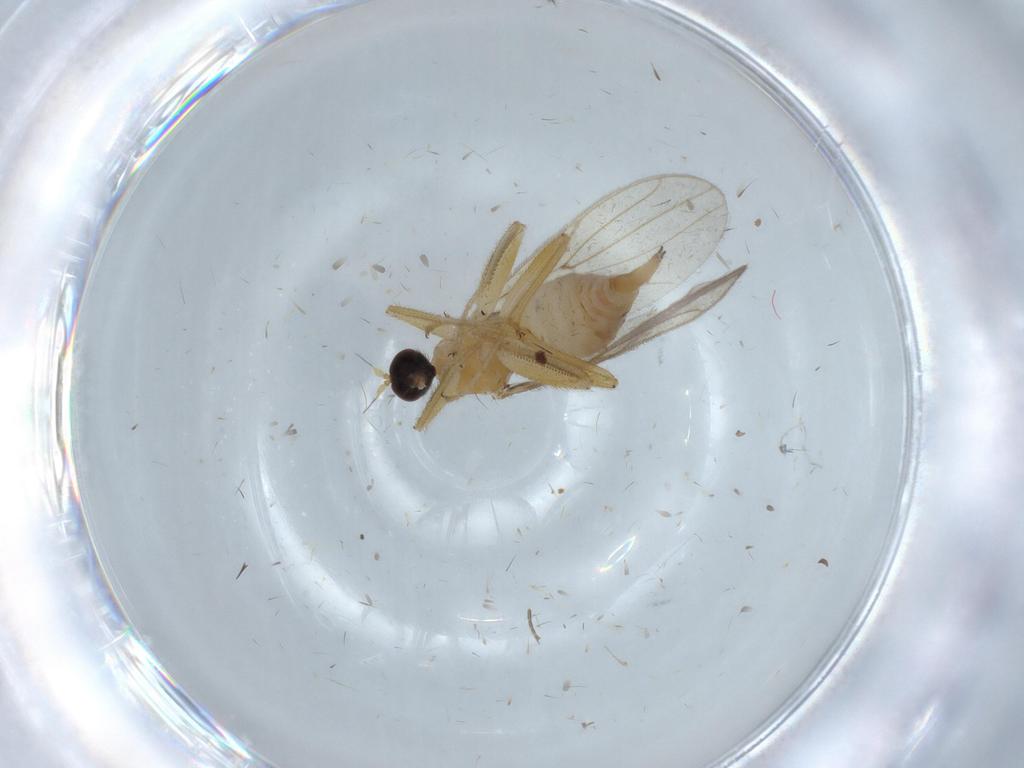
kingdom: Animalia
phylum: Arthropoda
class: Insecta
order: Diptera
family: Hybotidae
